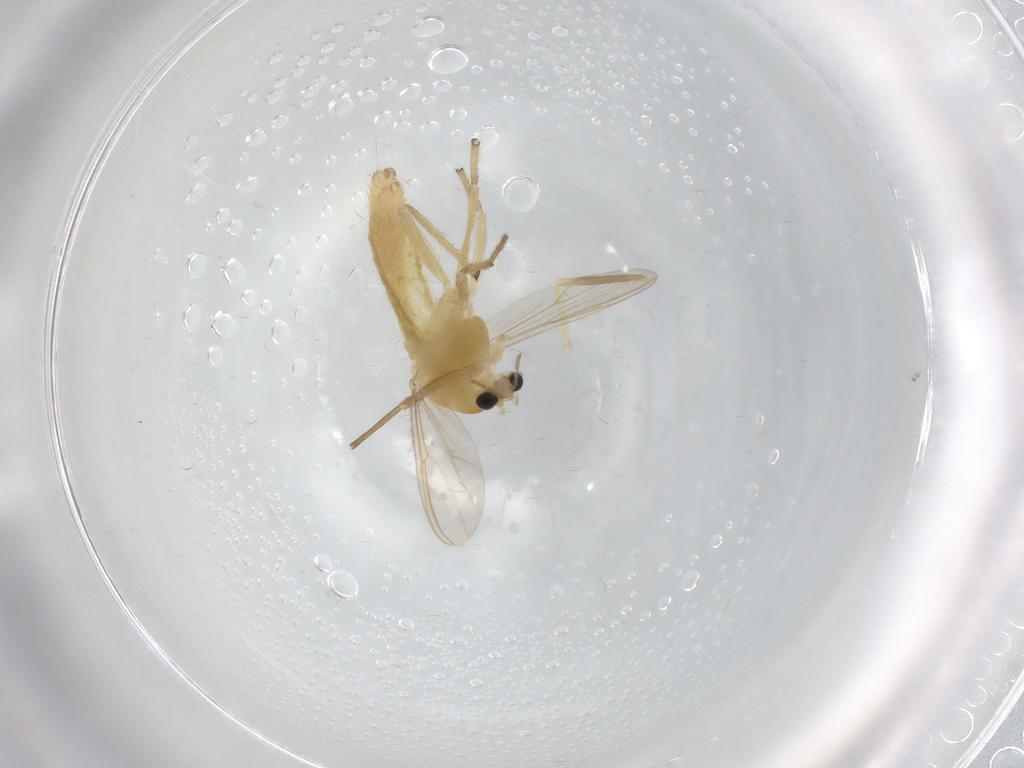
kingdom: Animalia
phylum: Arthropoda
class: Insecta
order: Diptera
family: Chironomidae
